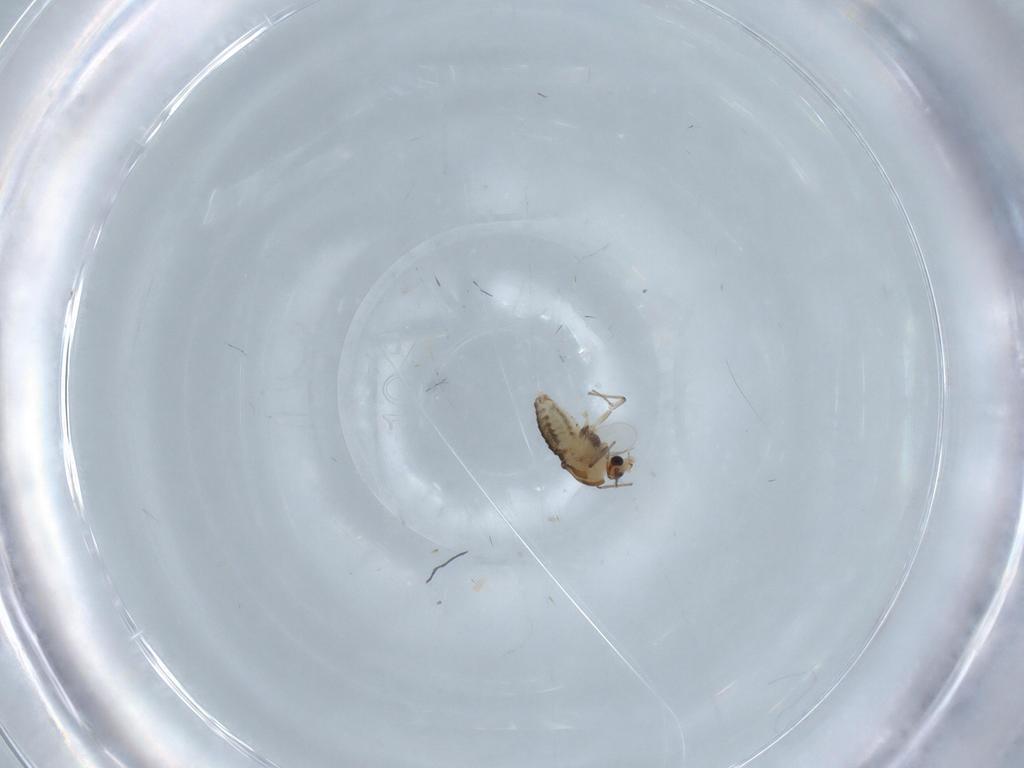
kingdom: Animalia
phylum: Arthropoda
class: Insecta
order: Diptera
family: Chironomidae
